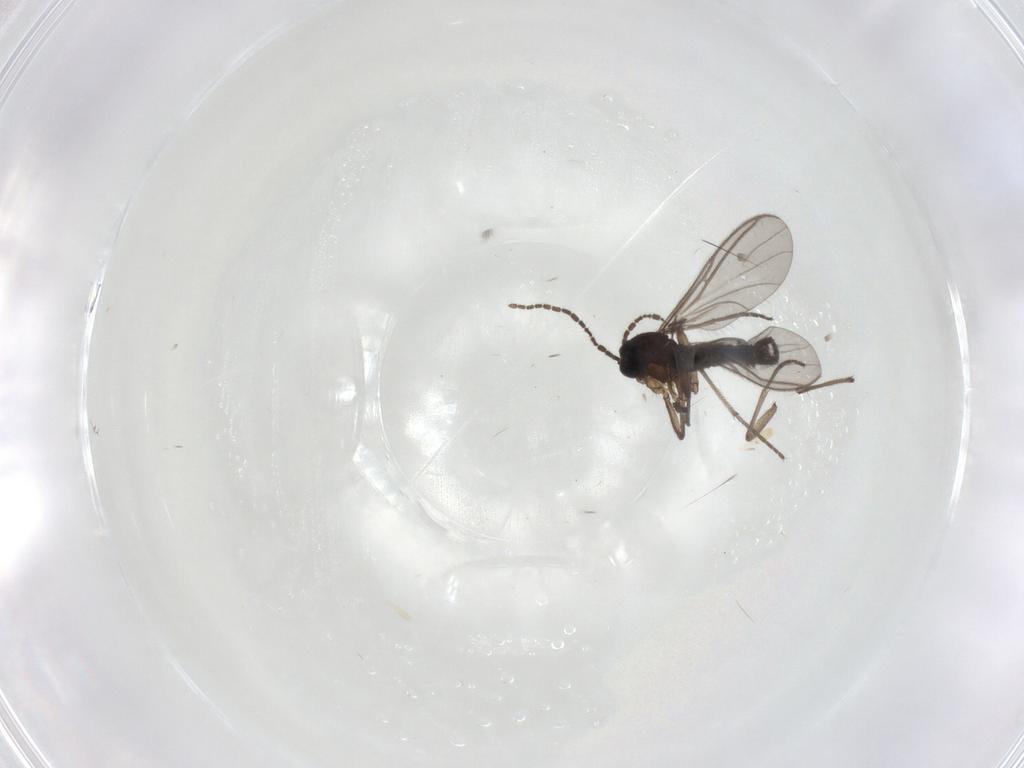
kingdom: Animalia
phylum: Arthropoda
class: Insecta
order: Diptera
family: Sciaridae
